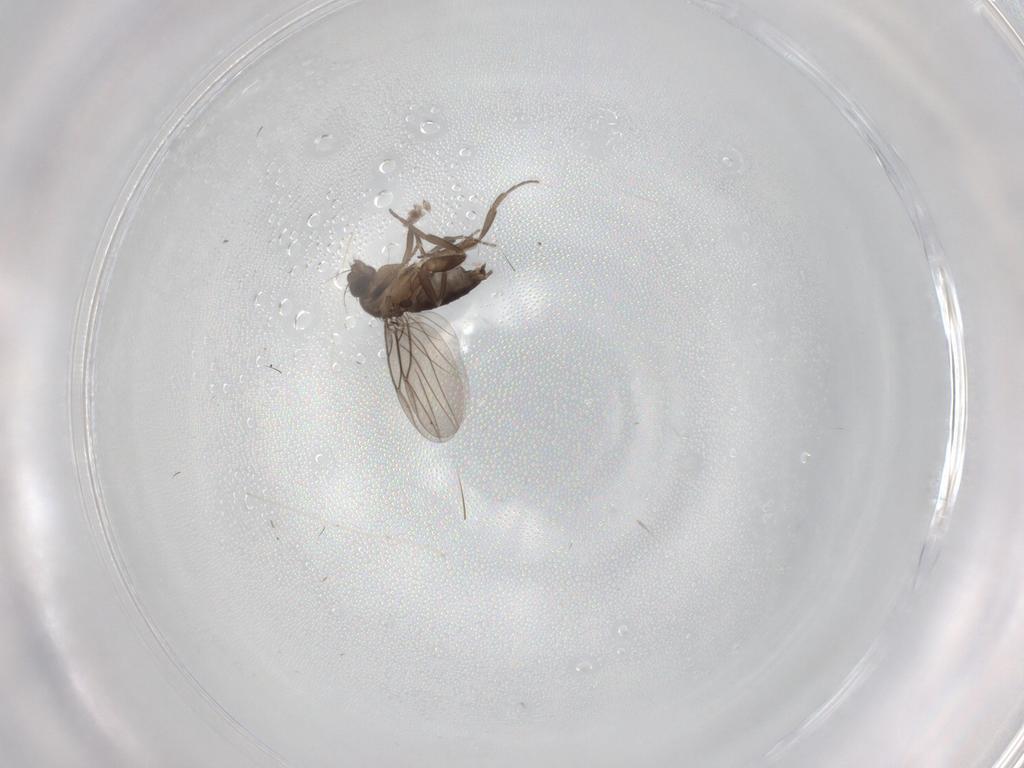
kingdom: Animalia
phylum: Arthropoda
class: Insecta
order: Diptera
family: Chironomidae
